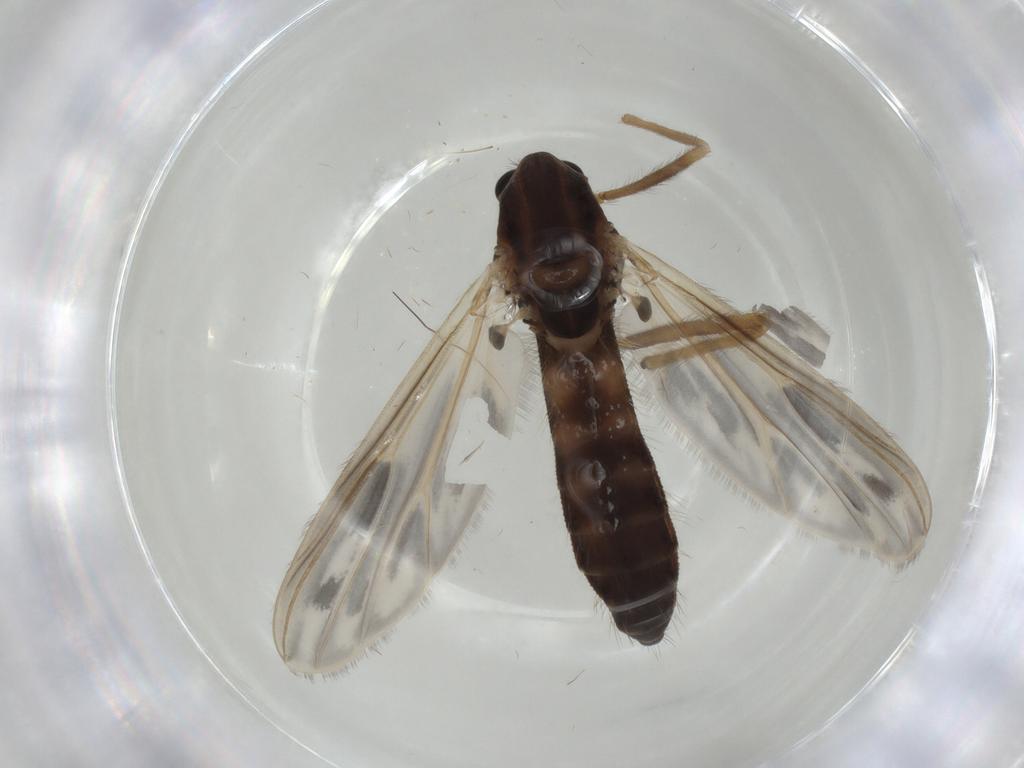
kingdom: Animalia
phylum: Arthropoda
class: Insecta
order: Diptera
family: Chironomidae
